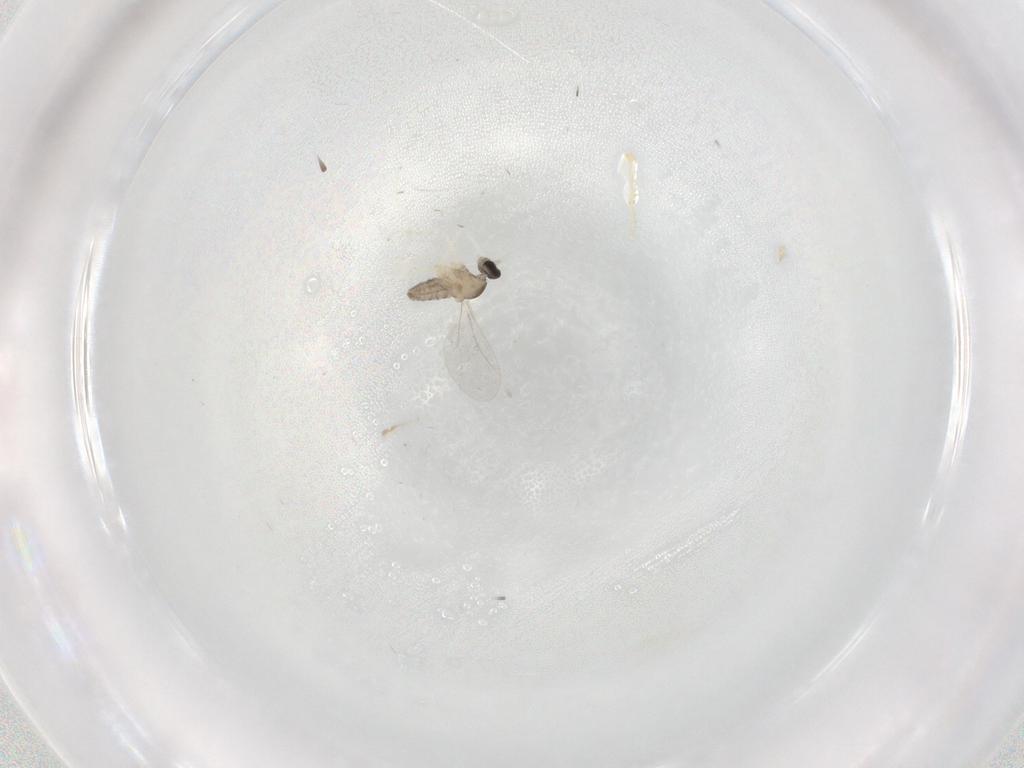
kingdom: Animalia
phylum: Arthropoda
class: Insecta
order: Diptera
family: Cecidomyiidae
